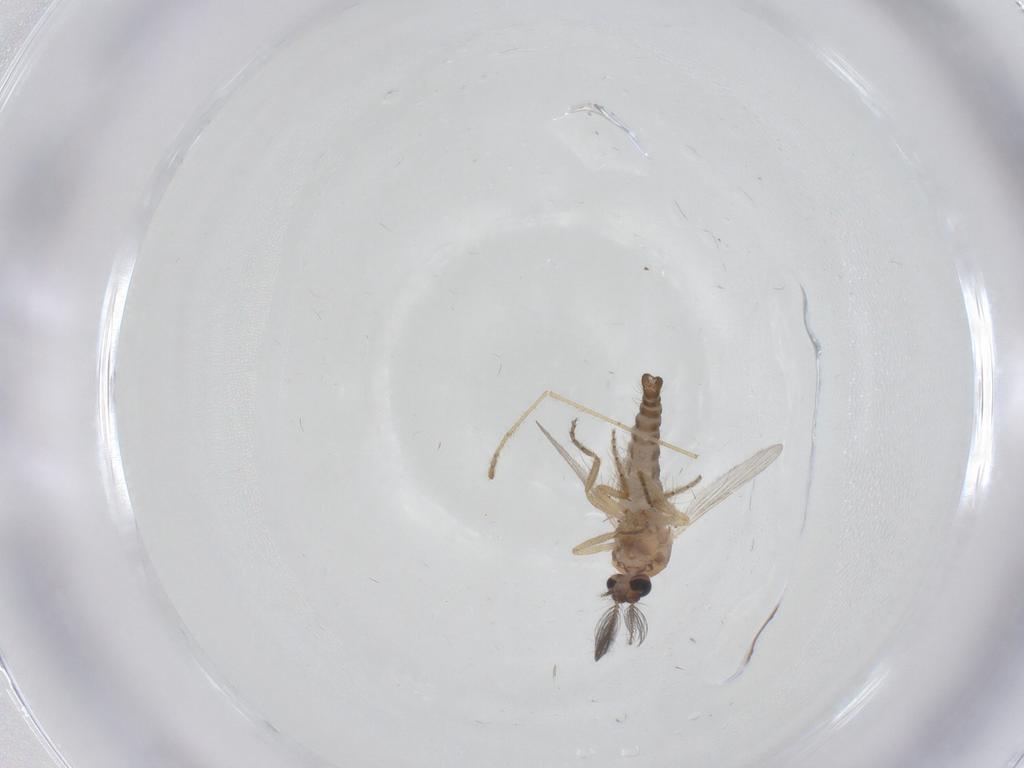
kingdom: Animalia
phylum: Arthropoda
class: Insecta
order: Diptera
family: Ceratopogonidae
